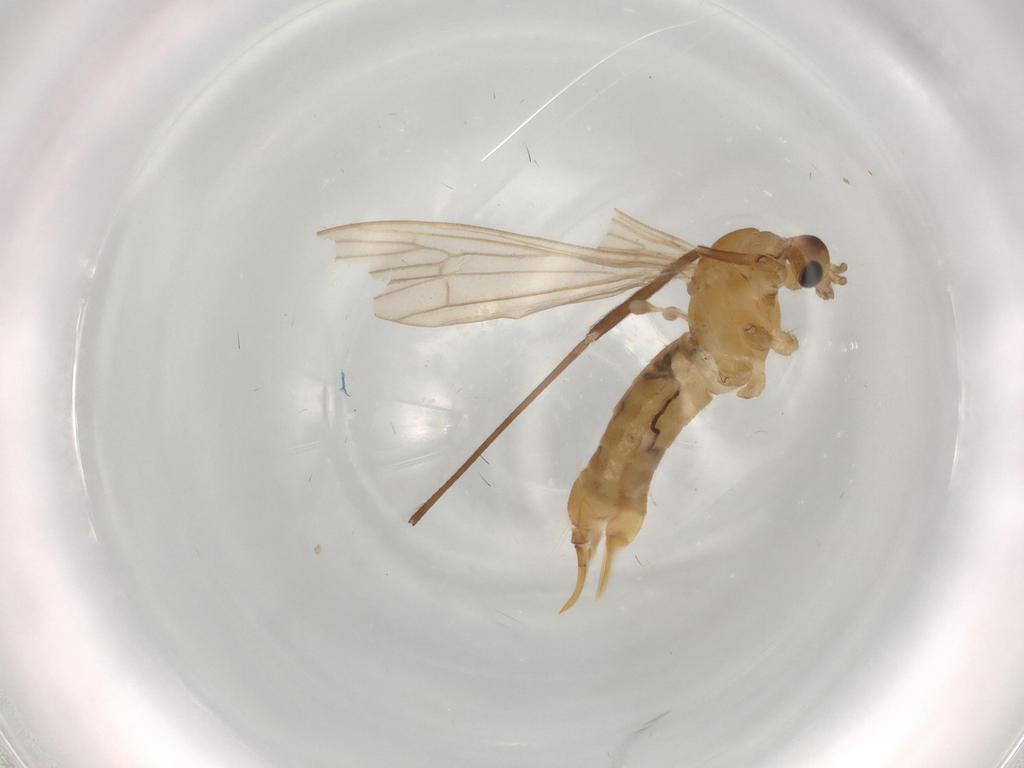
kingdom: Animalia
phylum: Arthropoda
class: Insecta
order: Diptera
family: Limoniidae
